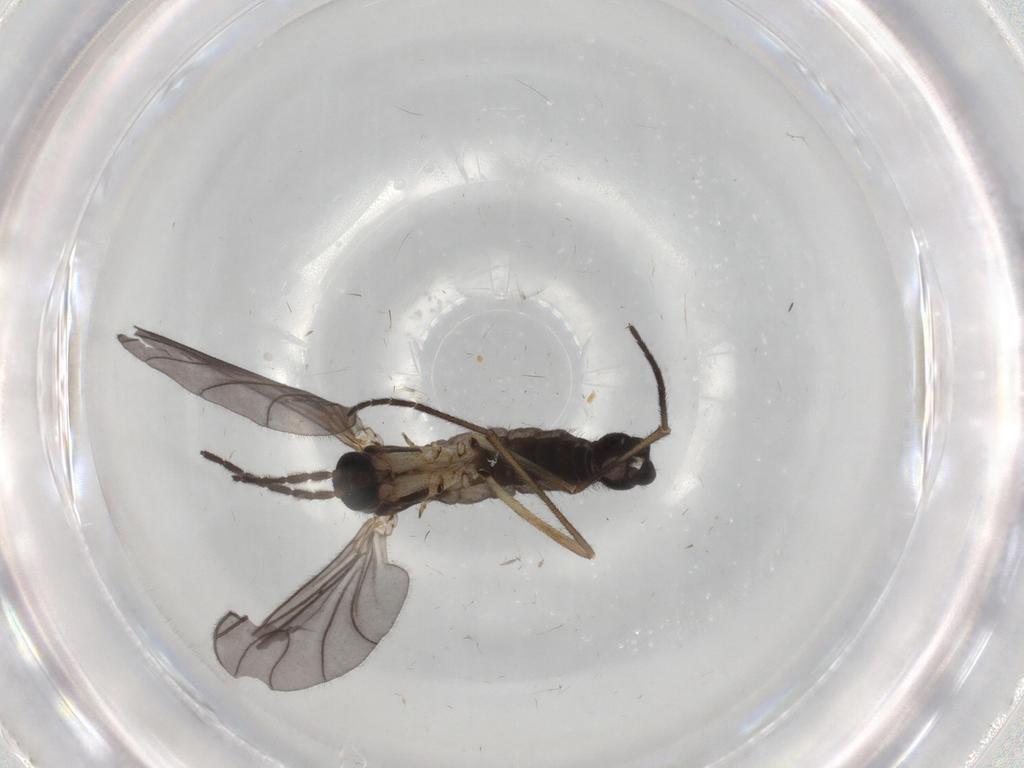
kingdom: Animalia
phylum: Arthropoda
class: Insecta
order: Diptera
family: Sciaridae
